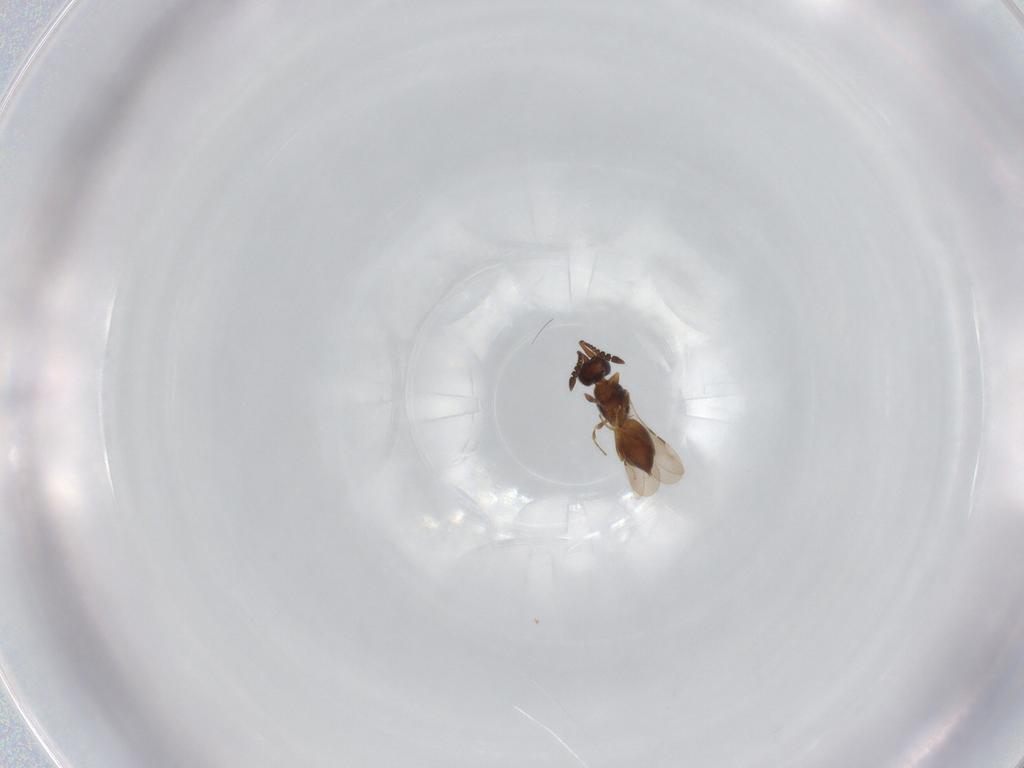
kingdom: Animalia
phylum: Arthropoda
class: Insecta
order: Hymenoptera
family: Ceraphronidae
